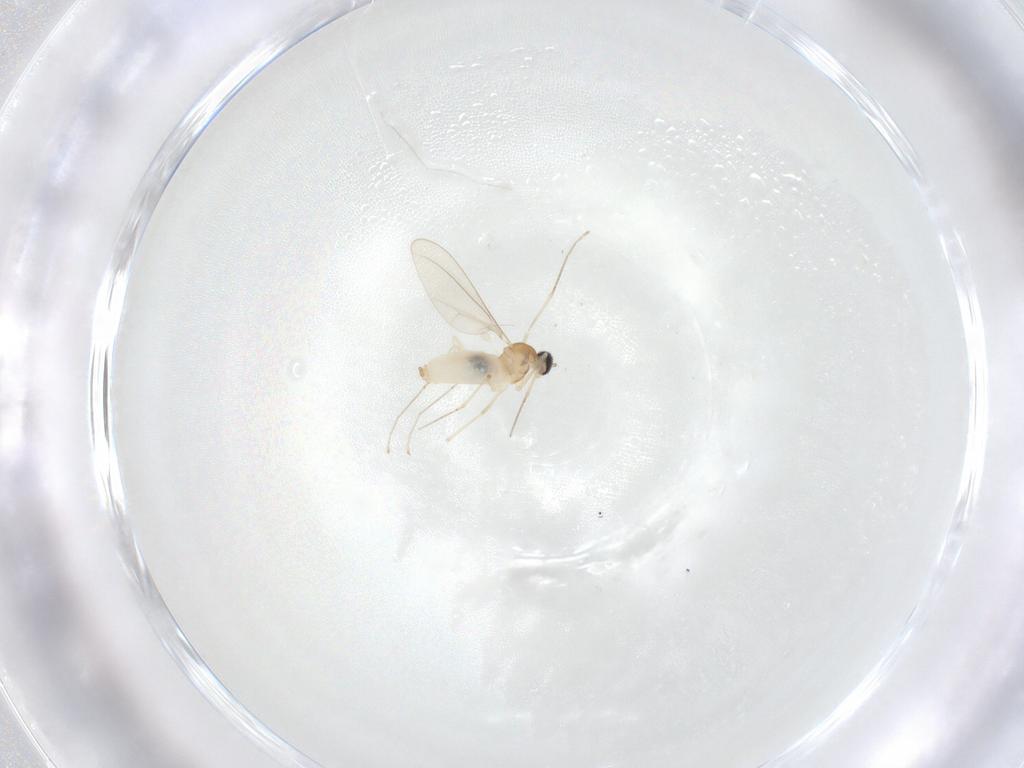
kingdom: Animalia
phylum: Arthropoda
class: Insecta
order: Diptera
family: Cecidomyiidae
